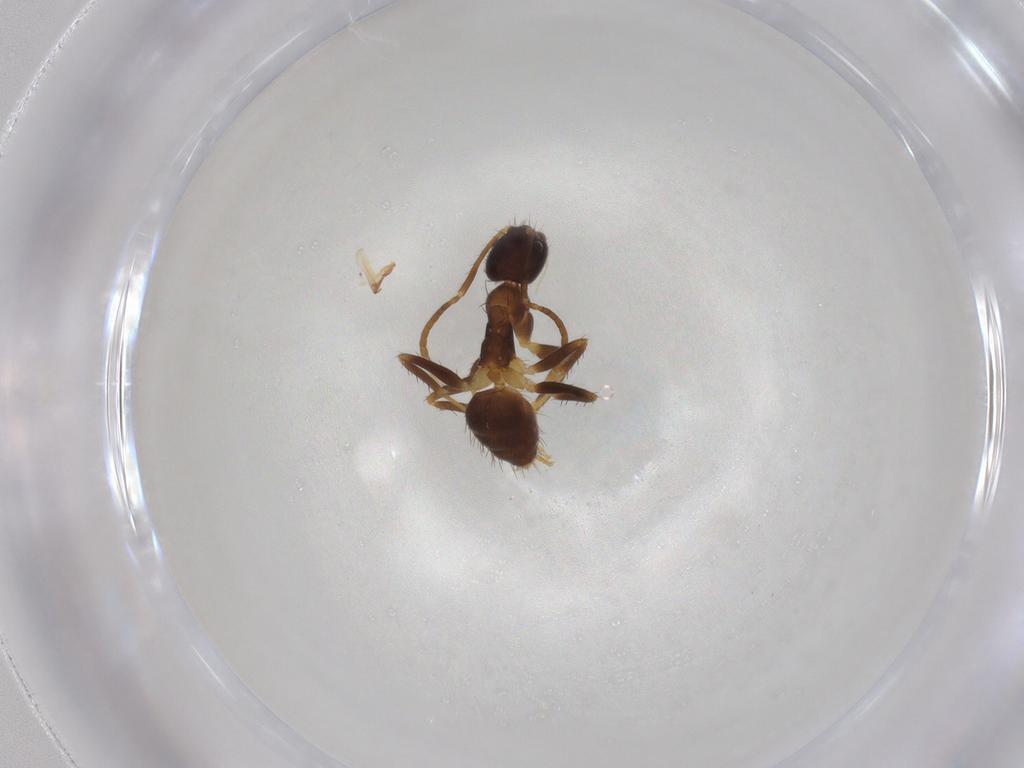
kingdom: Animalia
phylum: Arthropoda
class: Insecta
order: Hymenoptera
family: Formicidae
